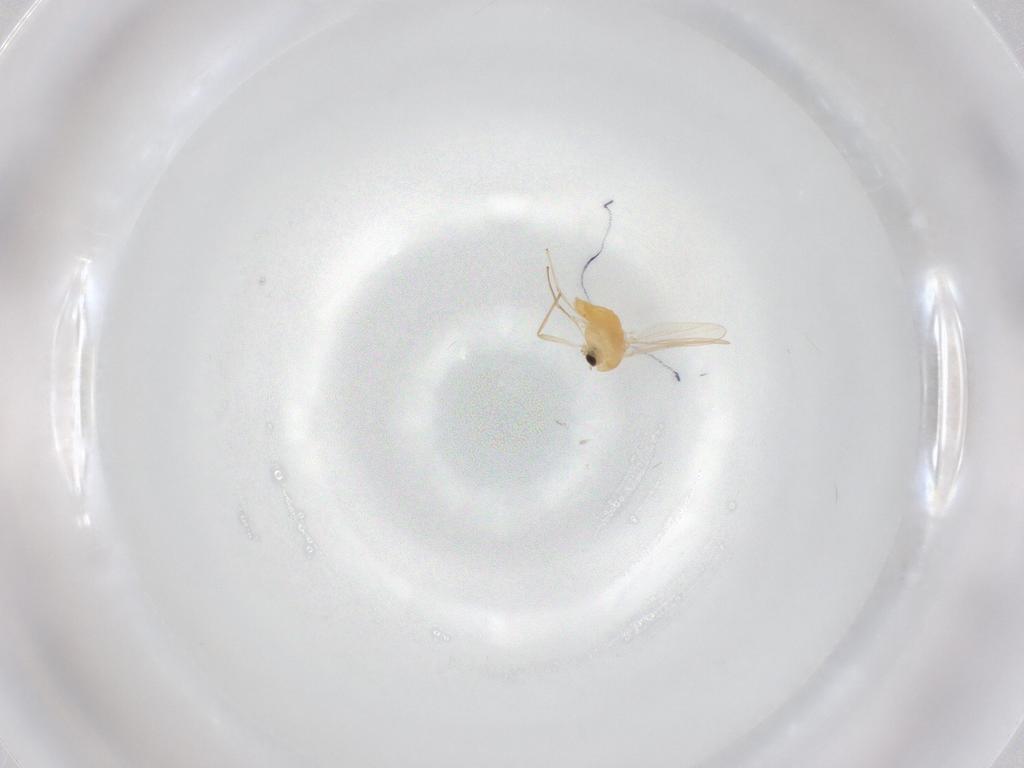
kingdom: Animalia
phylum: Arthropoda
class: Insecta
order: Diptera
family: Chironomidae
